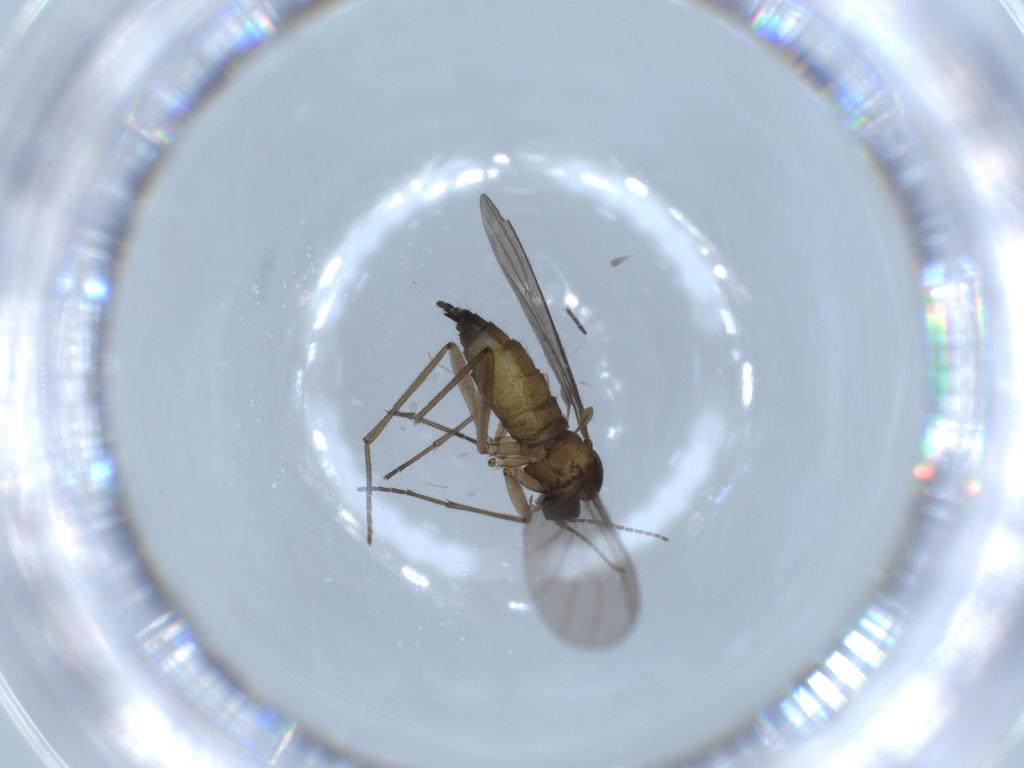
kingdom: Animalia
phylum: Arthropoda
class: Insecta
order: Diptera
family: Sciaridae
